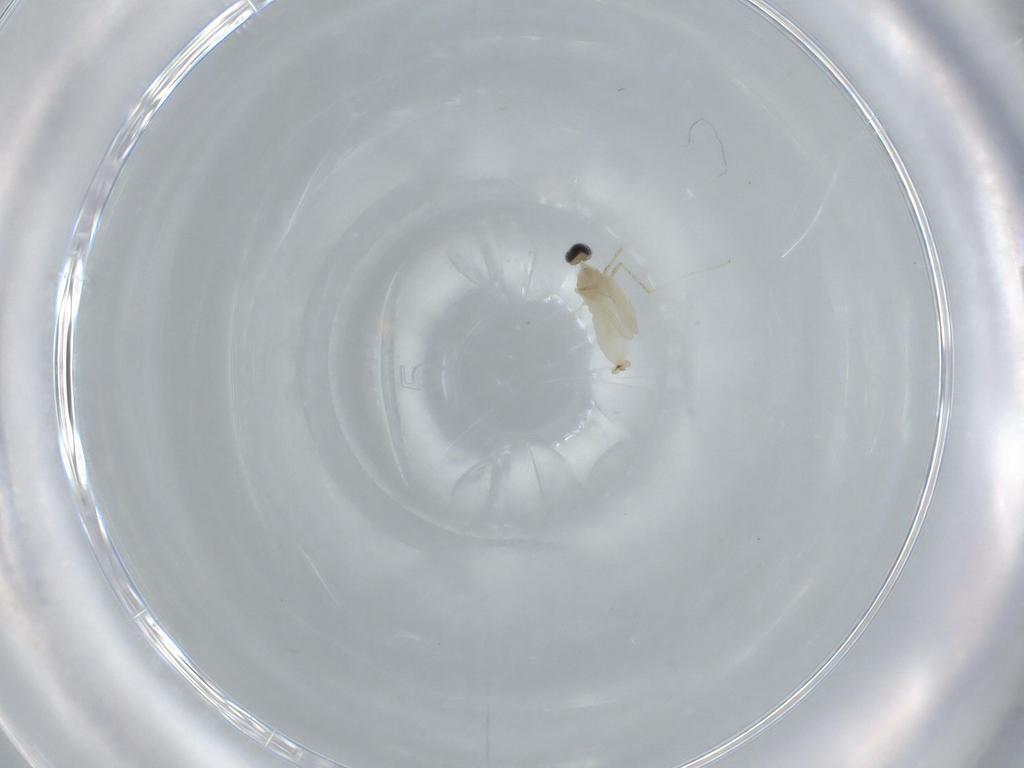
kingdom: Animalia
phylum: Arthropoda
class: Insecta
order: Diptera
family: Cecidomyiidae
